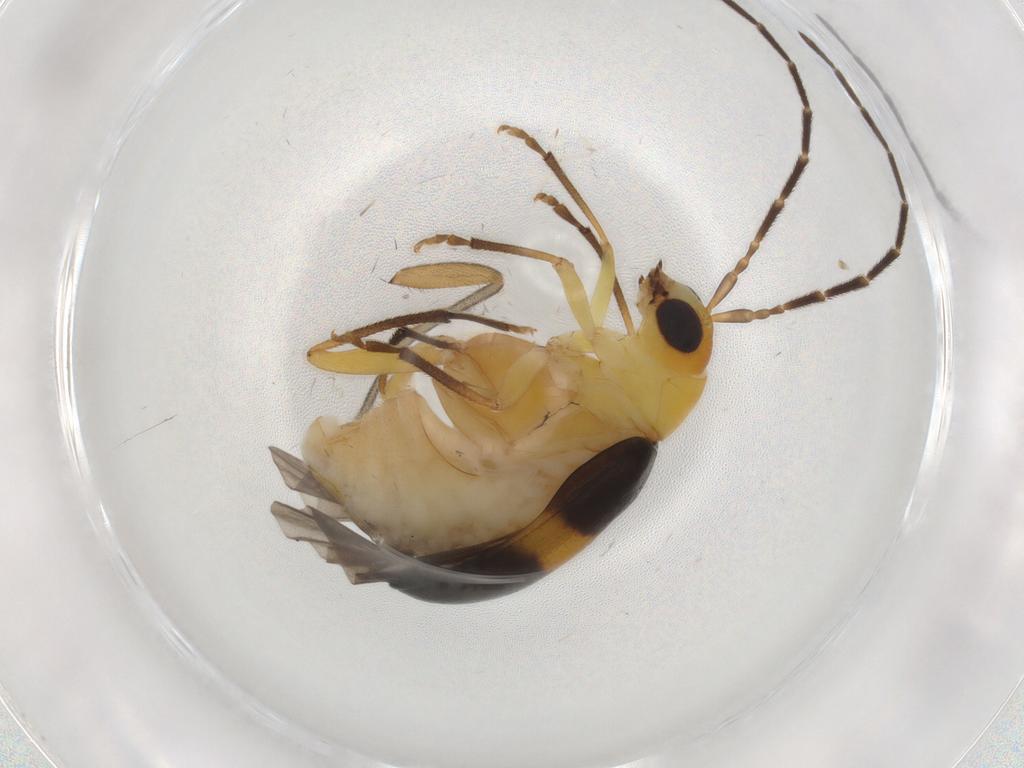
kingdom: Animalia
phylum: Arthropoda
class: Insecta
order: Coleoptera
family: Chrysomelidae
